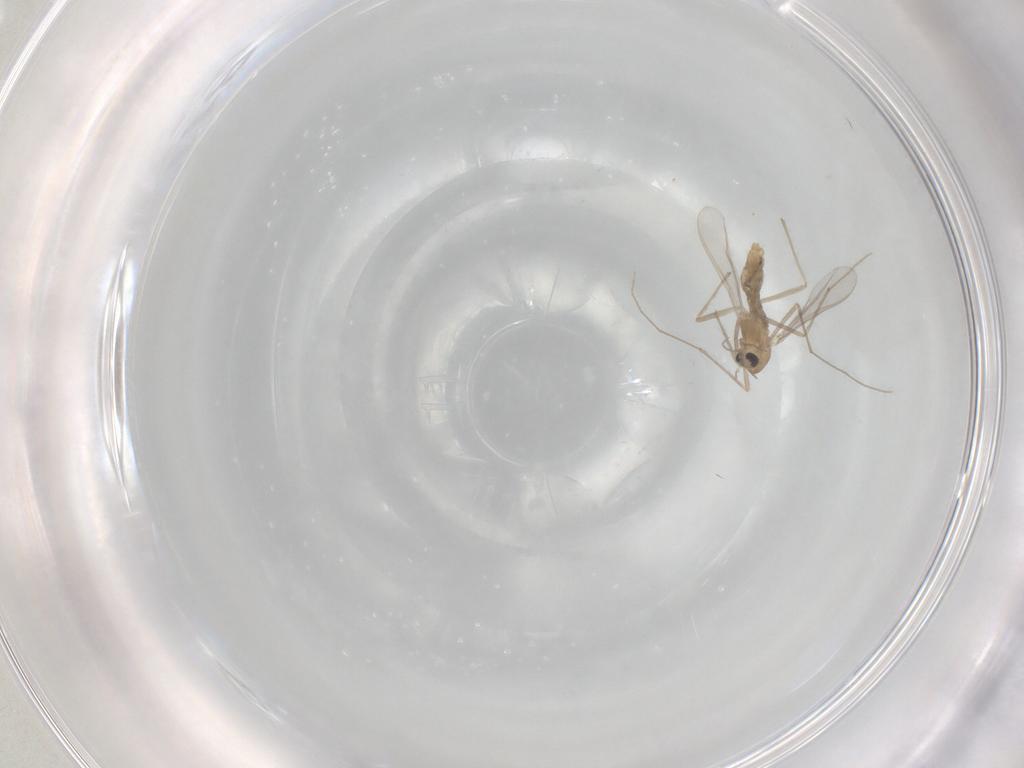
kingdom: Animalia
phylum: Arthropoda
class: Insecta
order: Diptera
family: Chironomidae
